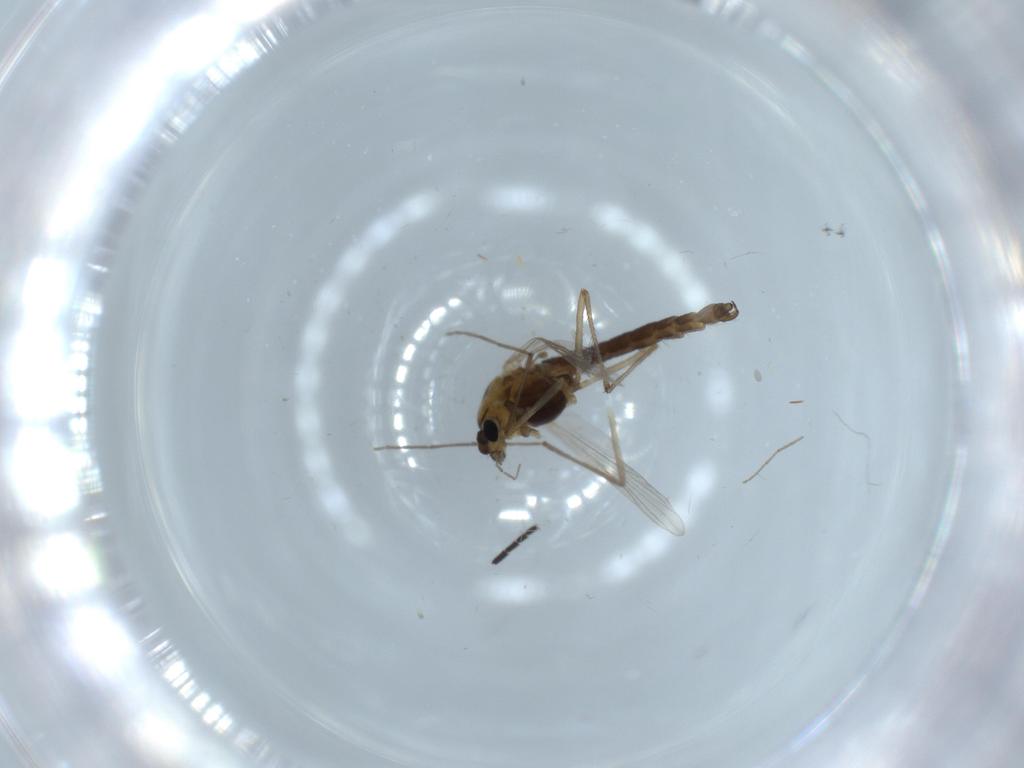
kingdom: Animalia
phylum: Arthropoda
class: Insecta
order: Diptera
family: Chironomidae
